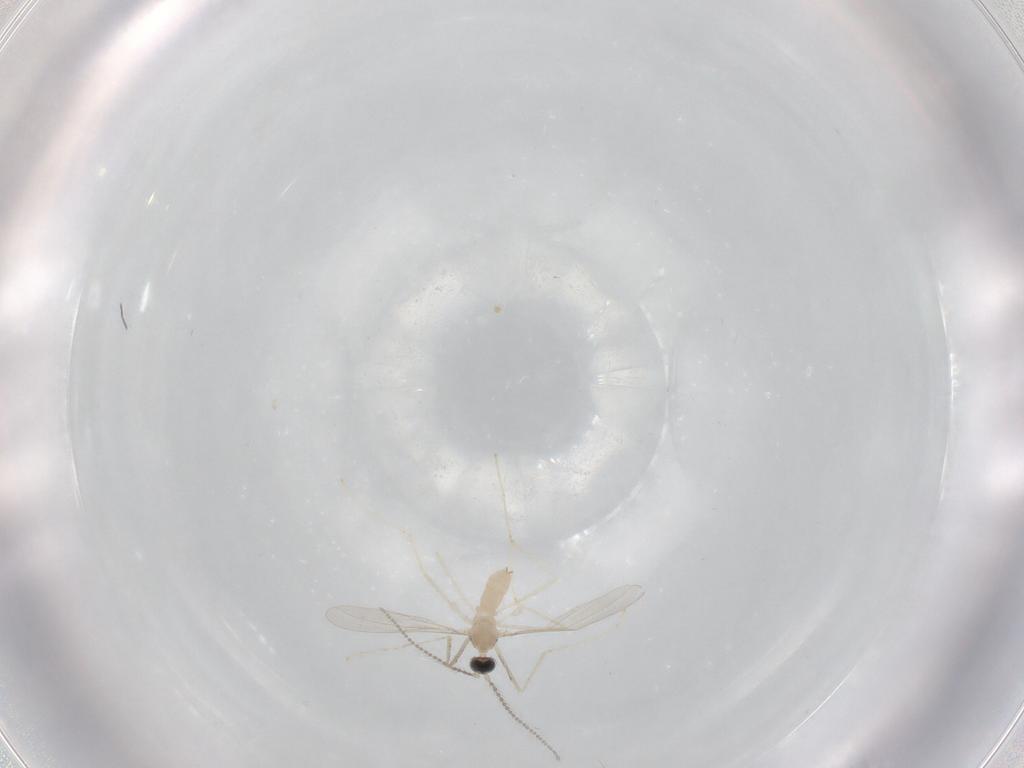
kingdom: Animalia
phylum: Arthropoda
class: Insecta
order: Diptera
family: Cecidomyiidae
